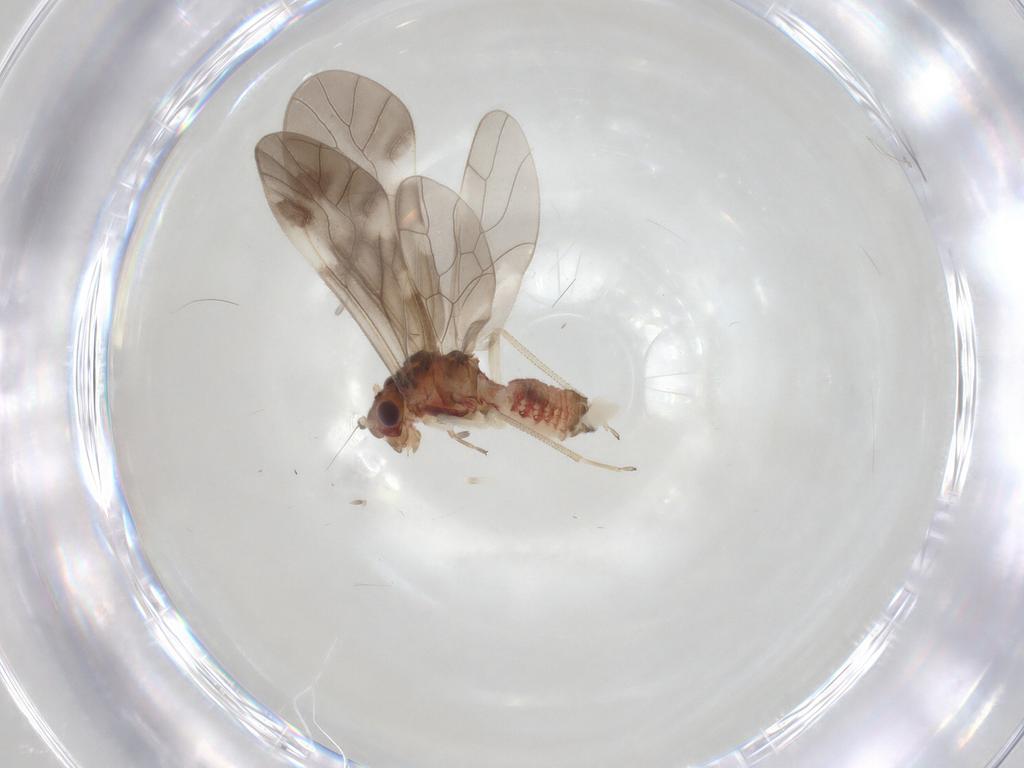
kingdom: Animalia
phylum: Arthropoda
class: Insecta
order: Psocodea
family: Caeciliusidae
